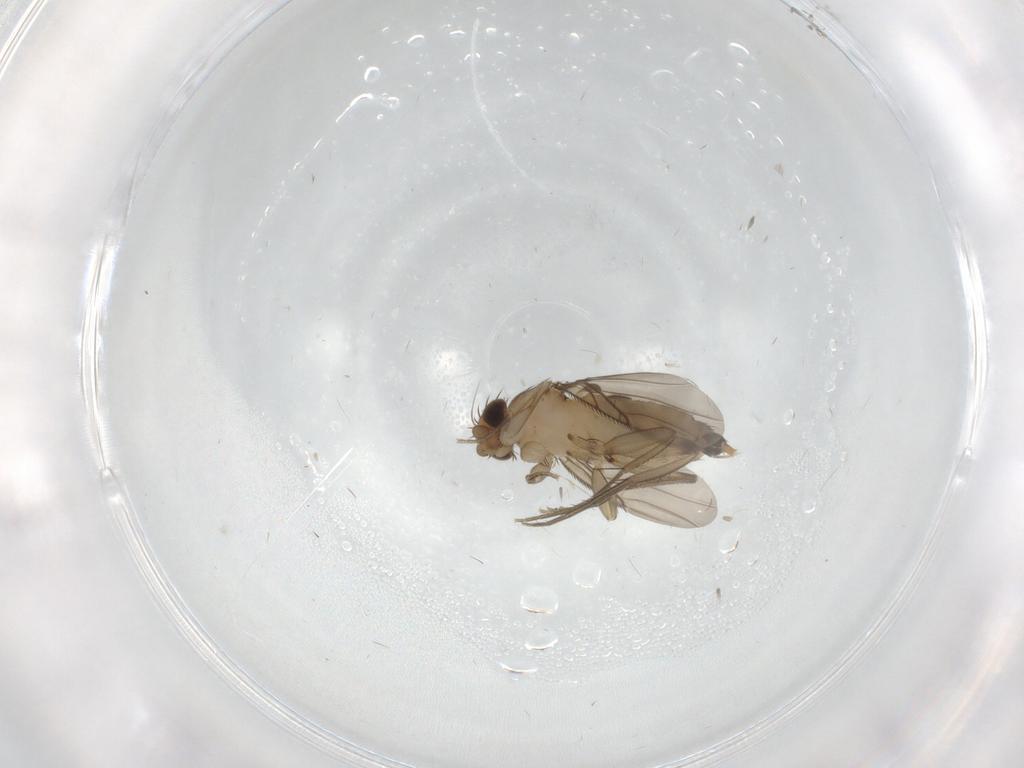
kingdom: Animalia
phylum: Arthropoda
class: Insecta
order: Diptera
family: Phoridae
